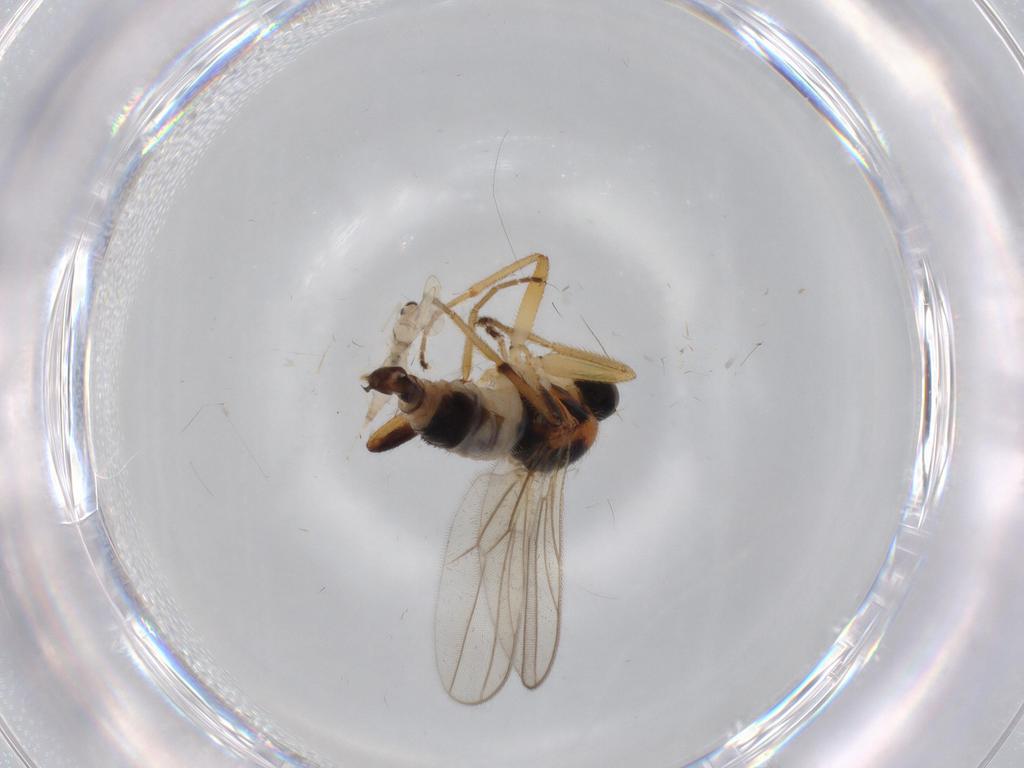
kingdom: Animalia
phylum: Arthropoda
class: Insecta
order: Diptera
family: Hybotidae
